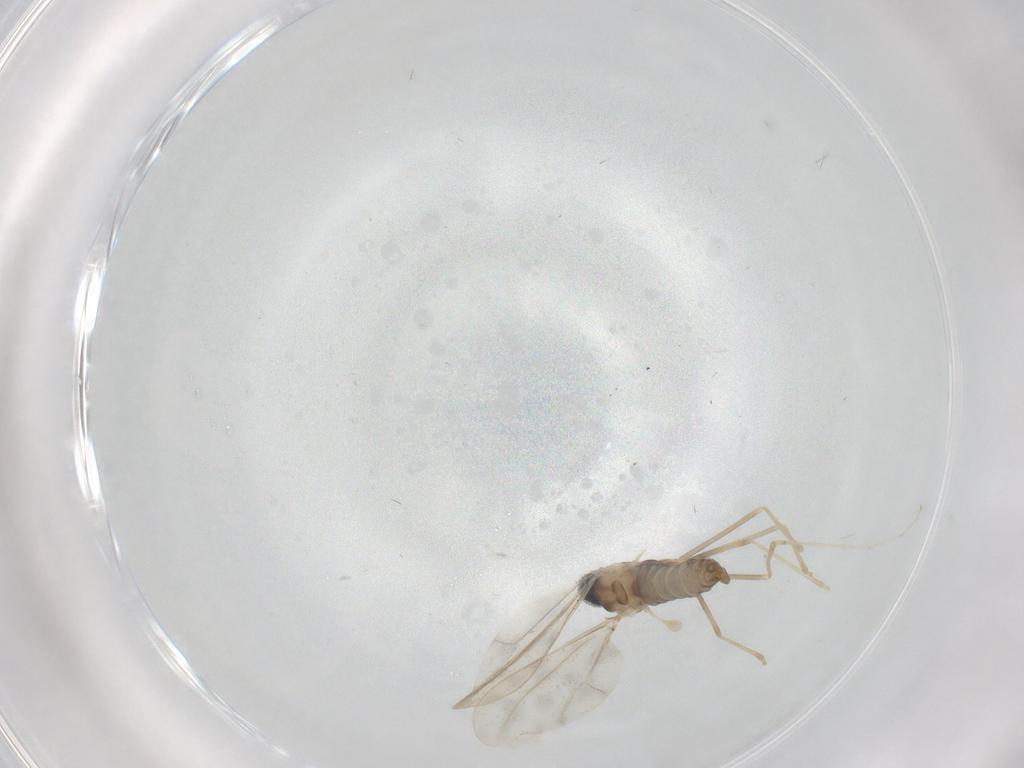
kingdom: Animalia
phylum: Arthropoda
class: Insecta
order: Diptera
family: Cecidomyiidae
